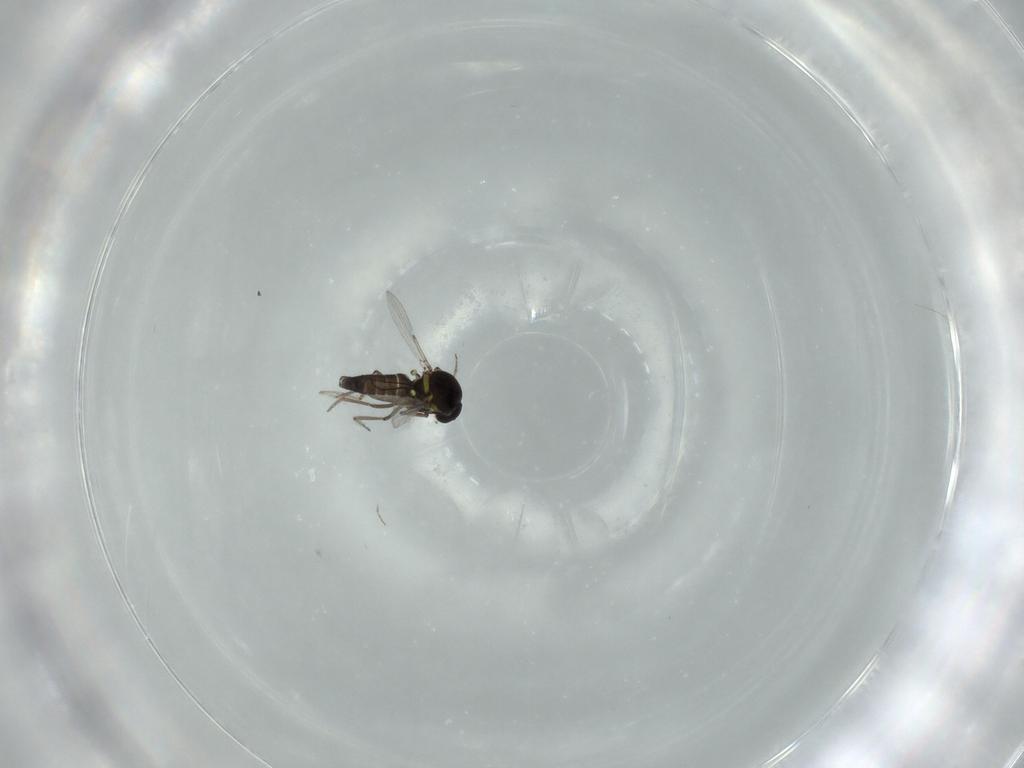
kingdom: Animalia
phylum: Arthropoda
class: Insecta
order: Diptera
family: Ceratopogonidae
